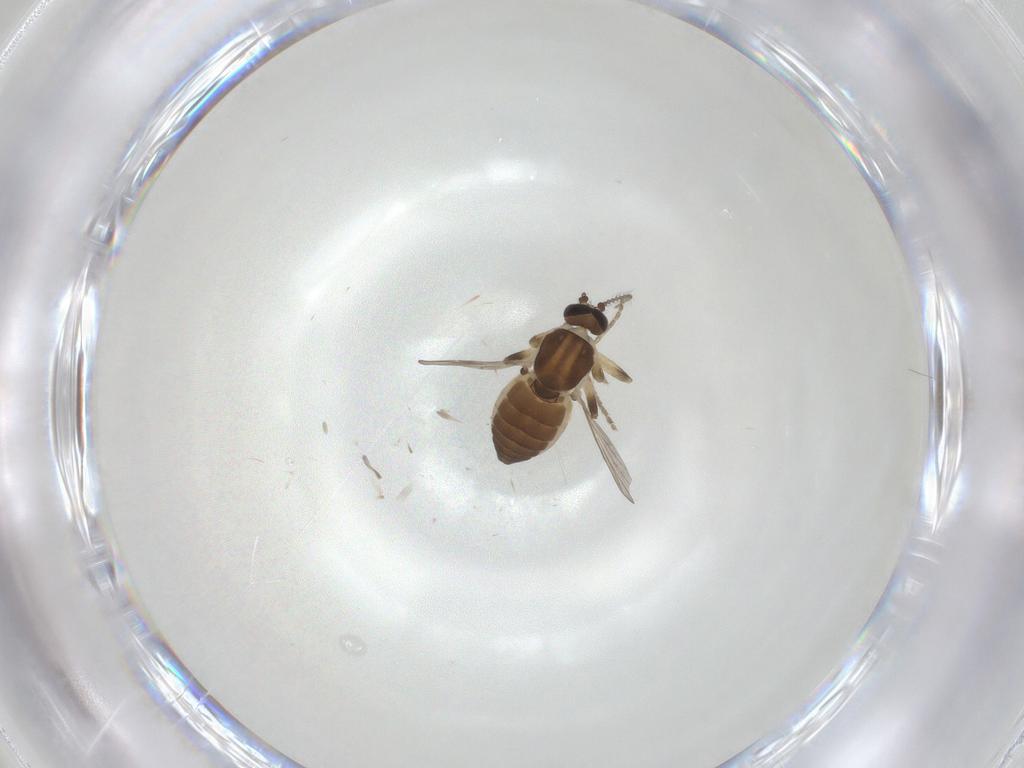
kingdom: Animalia
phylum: Arthropoda
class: Insecta
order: Diptera
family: Ceratopogonidae
